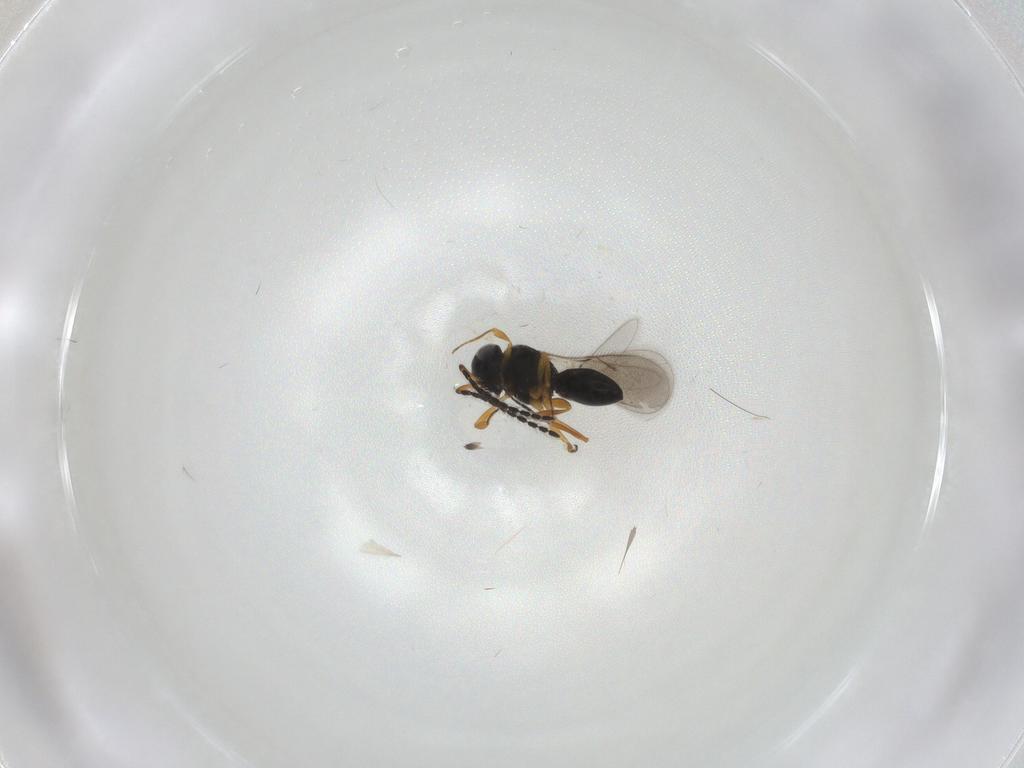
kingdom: Animalia
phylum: Arthropoda
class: Insecta
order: Hymenoptera
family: Scelionidae
